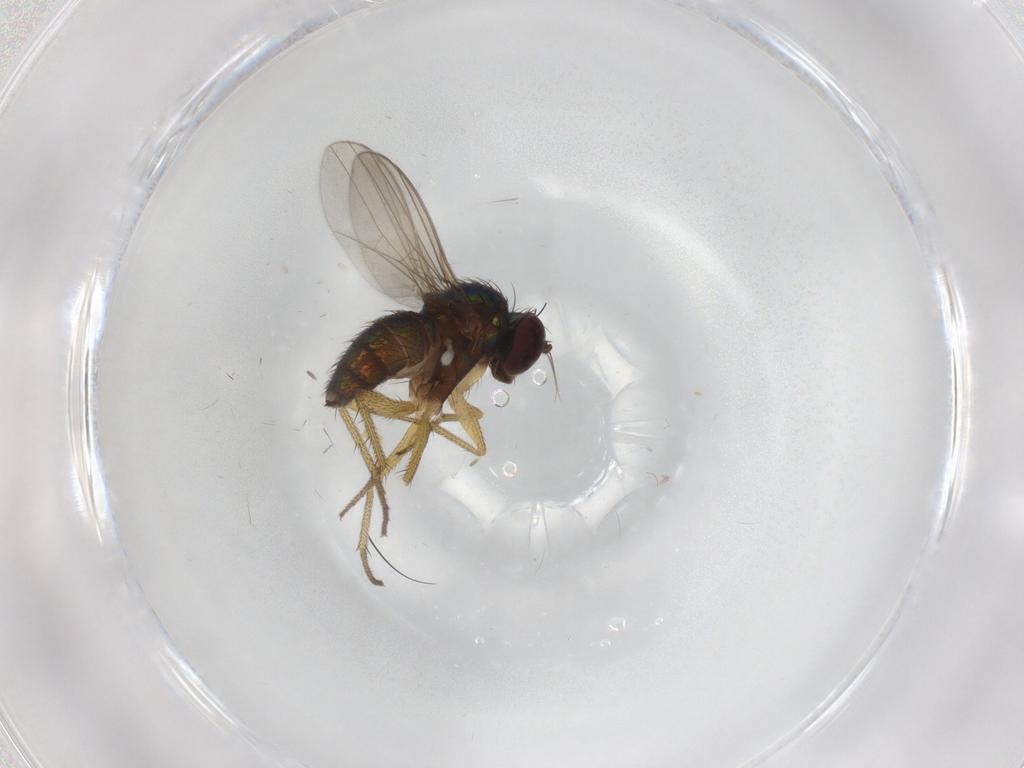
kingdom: Animalia
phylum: Arthropoda
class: Insecta
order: Diptera
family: Dolichopodidae
